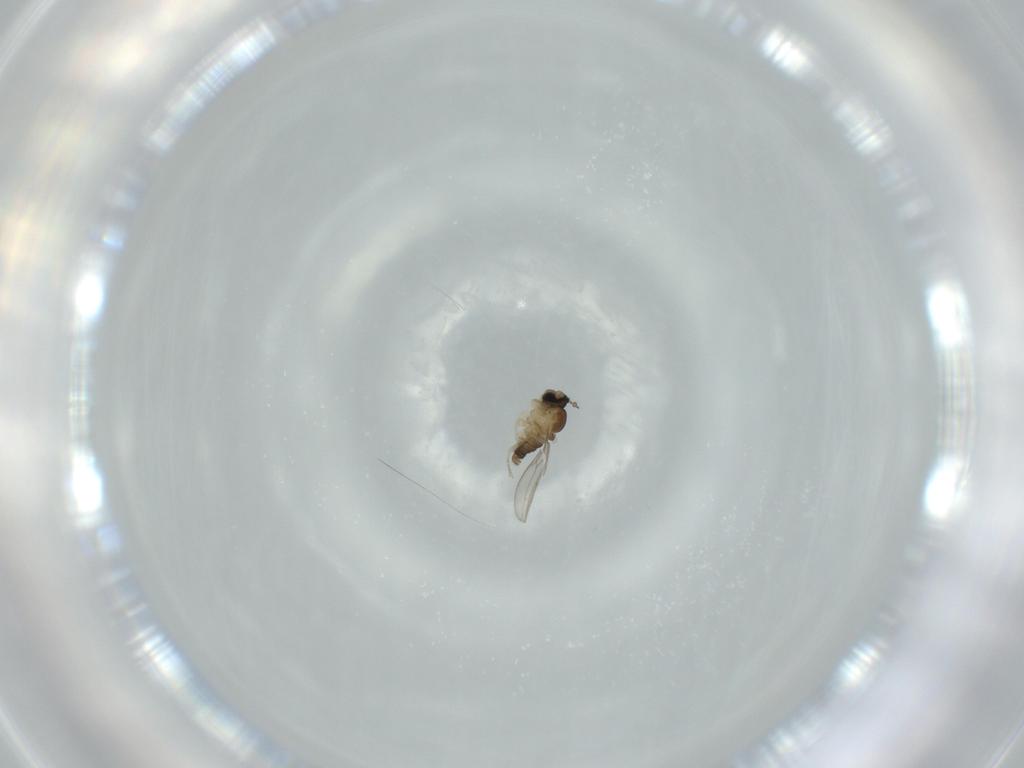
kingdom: Animalia
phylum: Arthropoda
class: Insecta
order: Diptera
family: Cecidomyiidae
